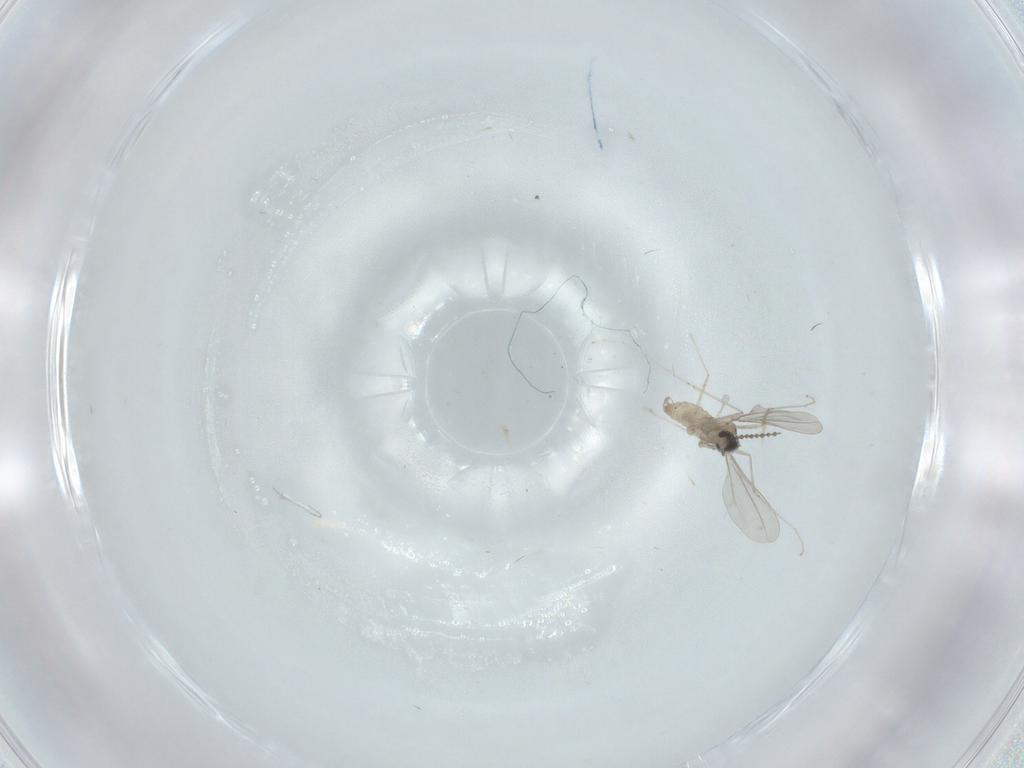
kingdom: Animalia
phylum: Arthropoda
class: Insecta
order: Diptera
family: Cecidomyiidae
